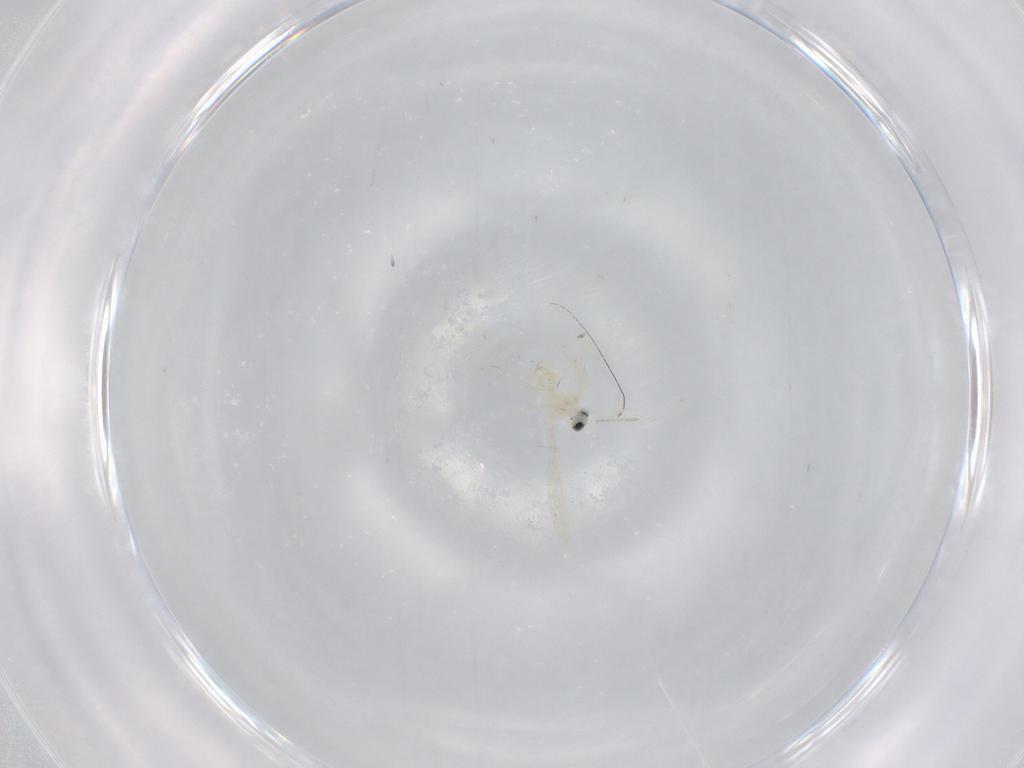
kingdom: Animalia
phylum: Arthropoda
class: Insecta
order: Diptera
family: Cecidomyiidae
